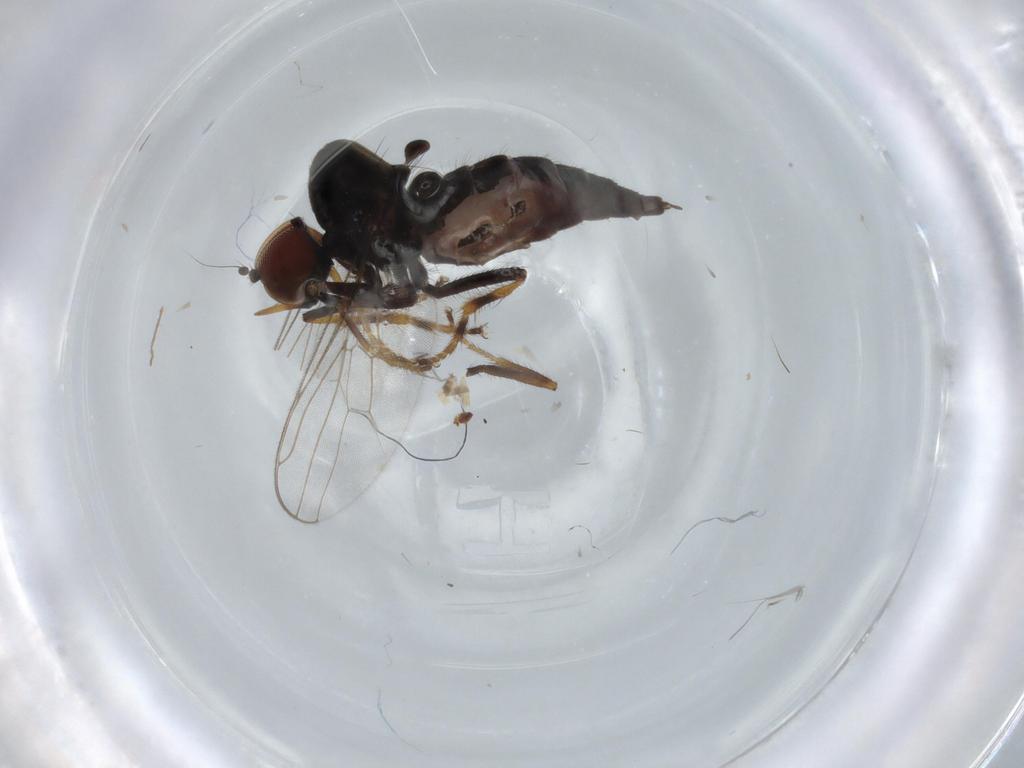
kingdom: Animalia
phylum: Arthropoda
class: Insecta
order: Diptera
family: Hybotidae
